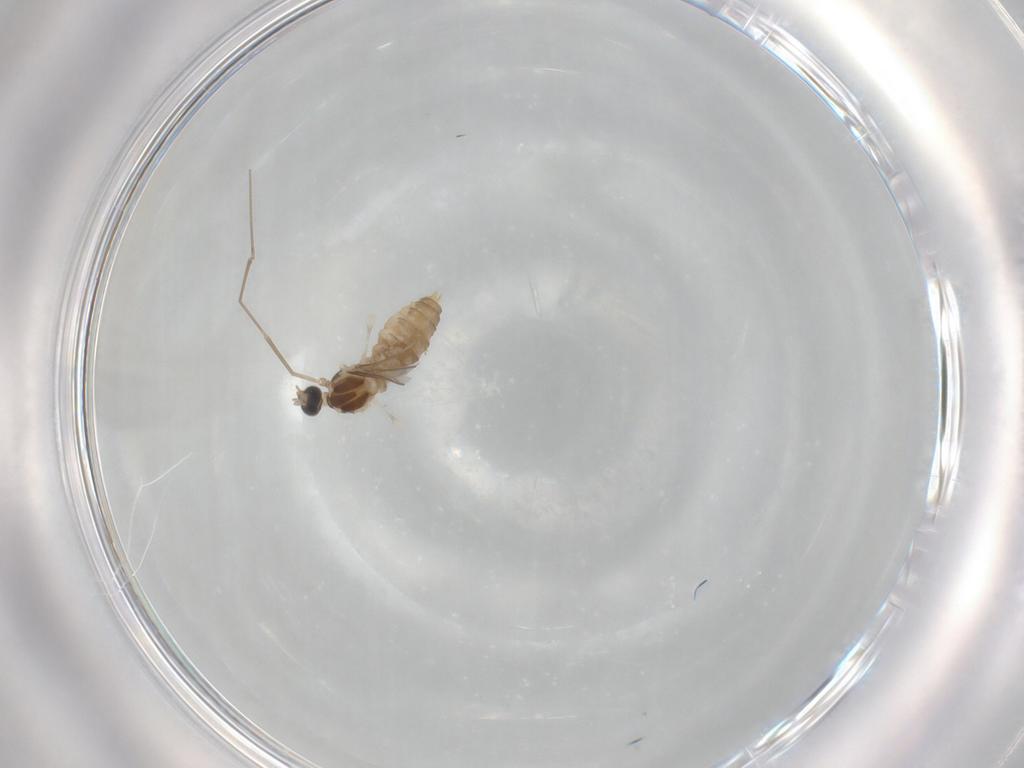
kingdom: Animalia
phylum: Arthropoda
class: Insecta
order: Diptera
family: Cecidomyiidae
